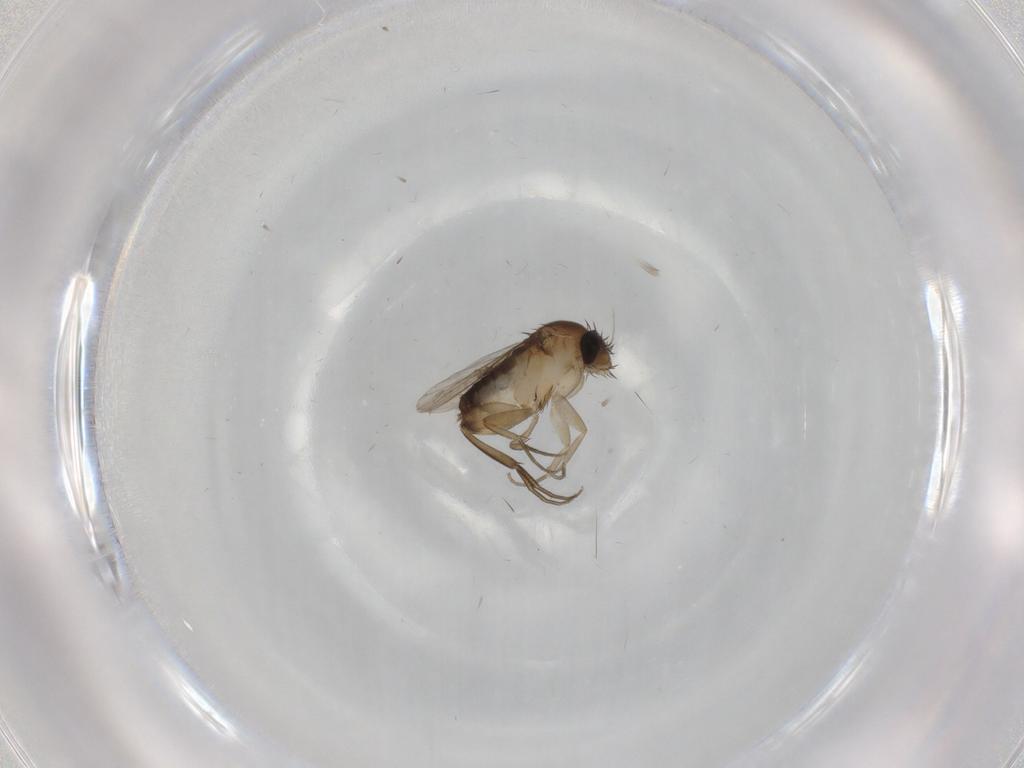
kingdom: Animalia
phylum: Arthropoda
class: Insecta
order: Diptera
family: Phoridae
